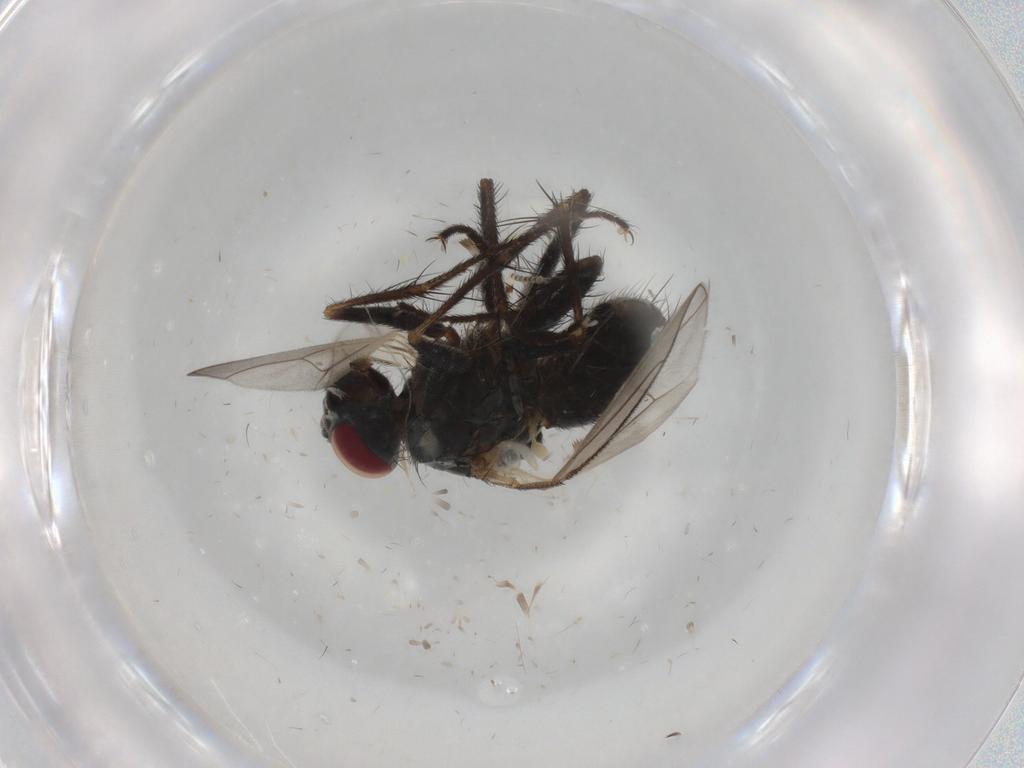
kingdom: Animalia
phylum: Arthropoda
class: Insecta
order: Diptera
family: Muscidae
